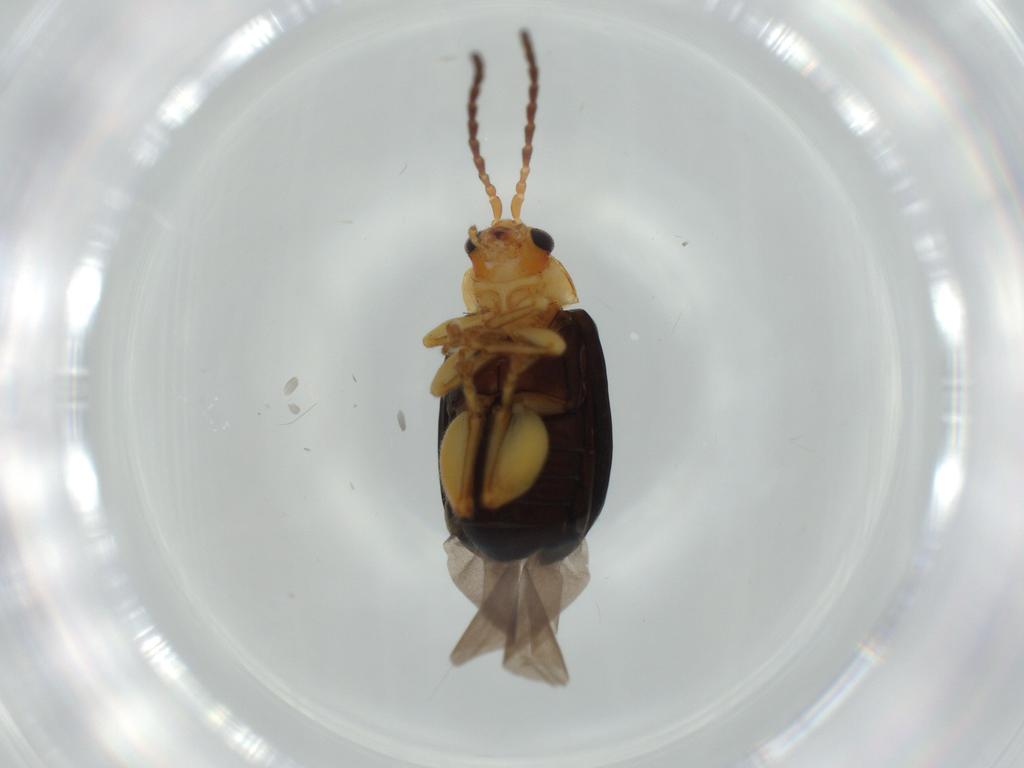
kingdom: Animalia
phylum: Arthropoda
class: Insecta
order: Coleoptera
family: Chrysomelidae
